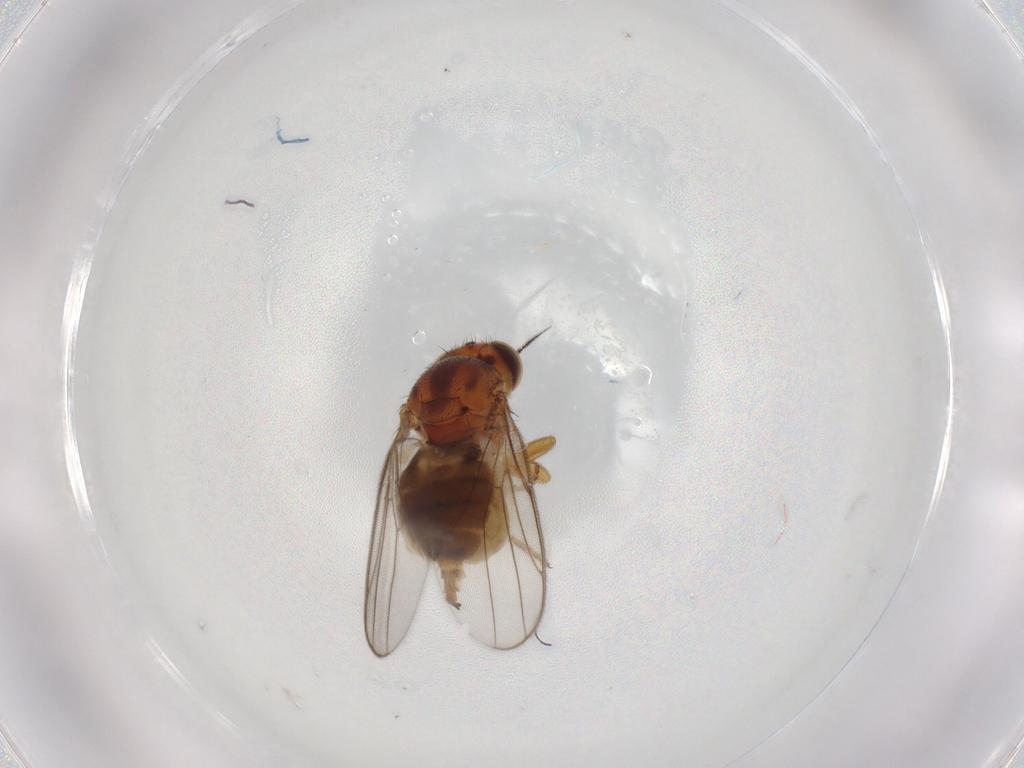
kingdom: Animalia
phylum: Arthropoda
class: Insecta
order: Diptera
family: Chloropidae
